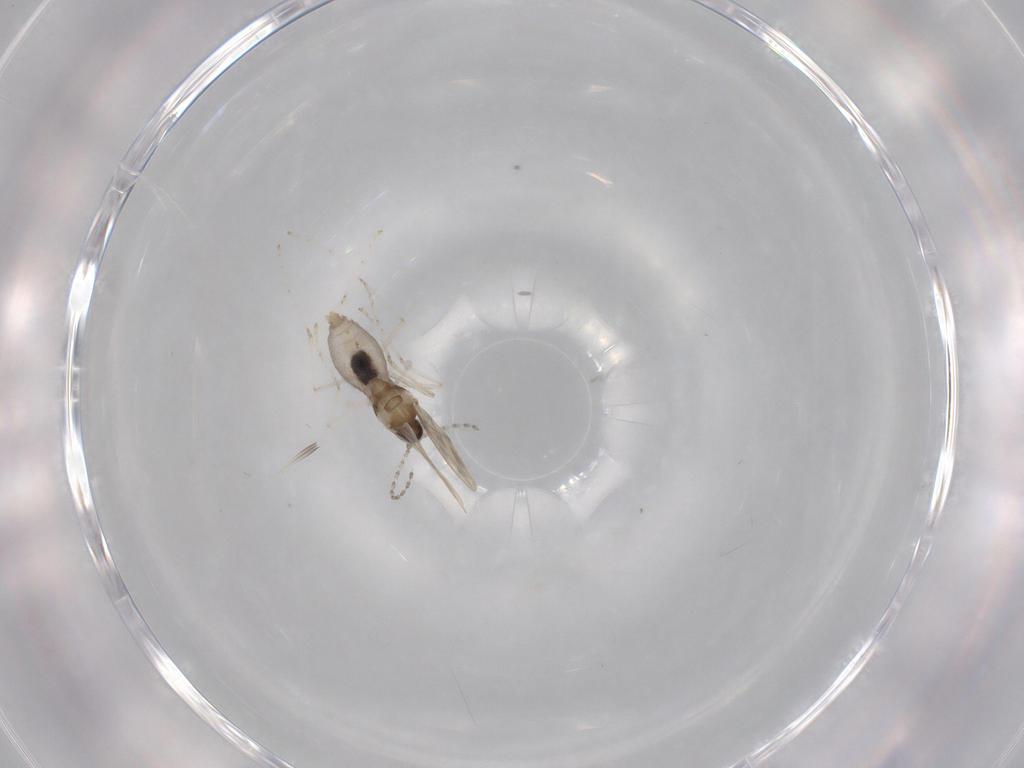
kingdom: Animalia
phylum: Arthropoda
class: Insecta
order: Diptera
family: Cecidomyiidae
